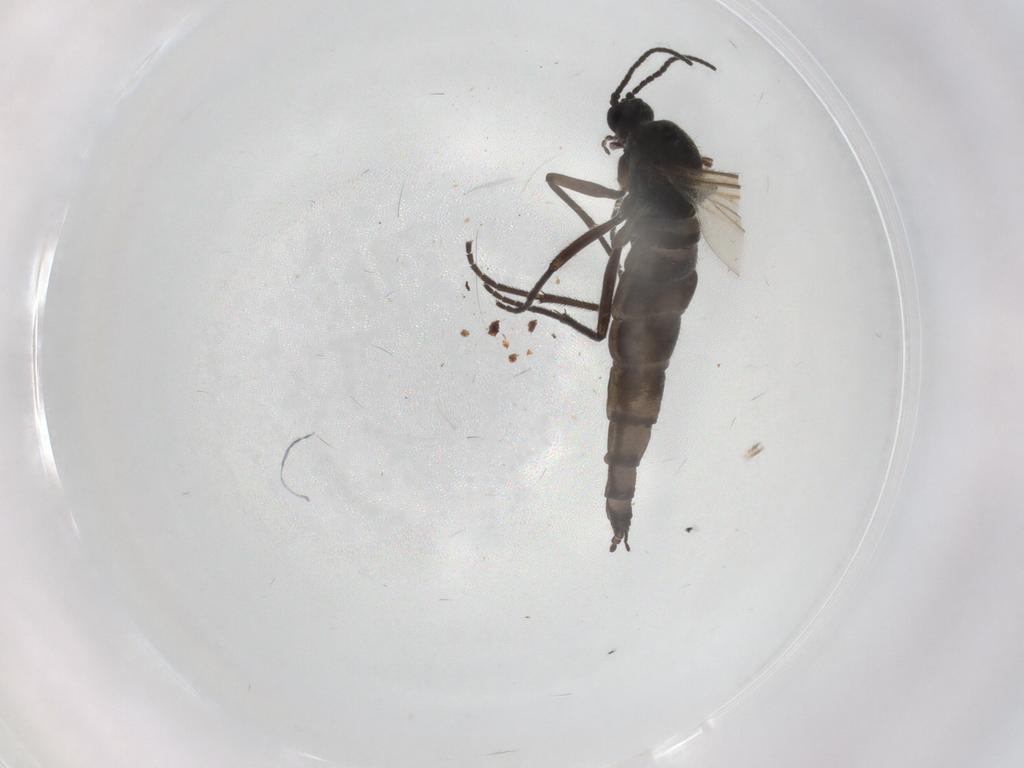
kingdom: Animalia
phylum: Arthropoda
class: Insecta
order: Diptera
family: Sciaridae
